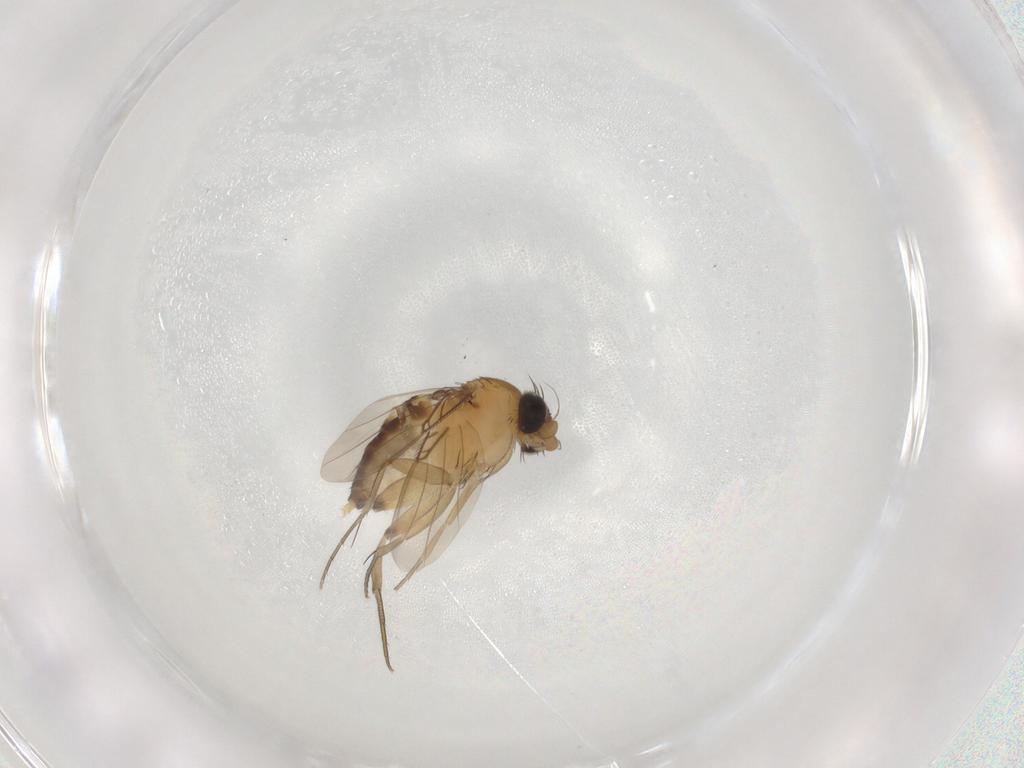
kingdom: Animalia
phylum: Arthropoda
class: Insecta
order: Diptera
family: Phoridae
